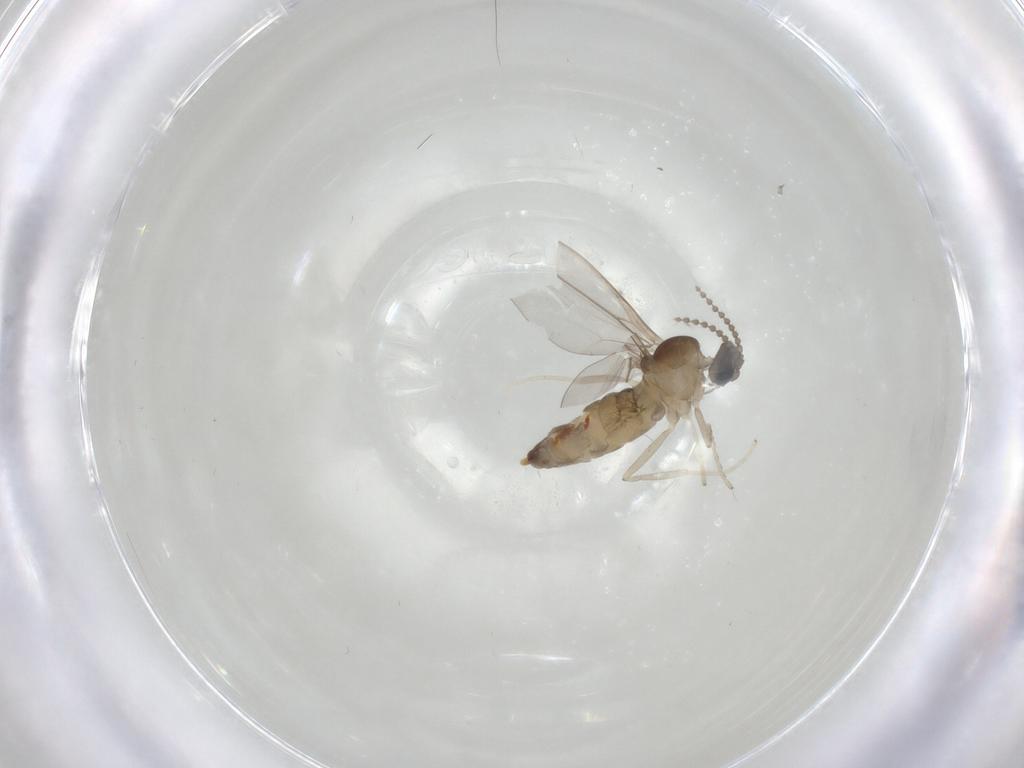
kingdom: Animalia
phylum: Arthropoda
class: Insecta
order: Diptera
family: Cecidomyiidae
